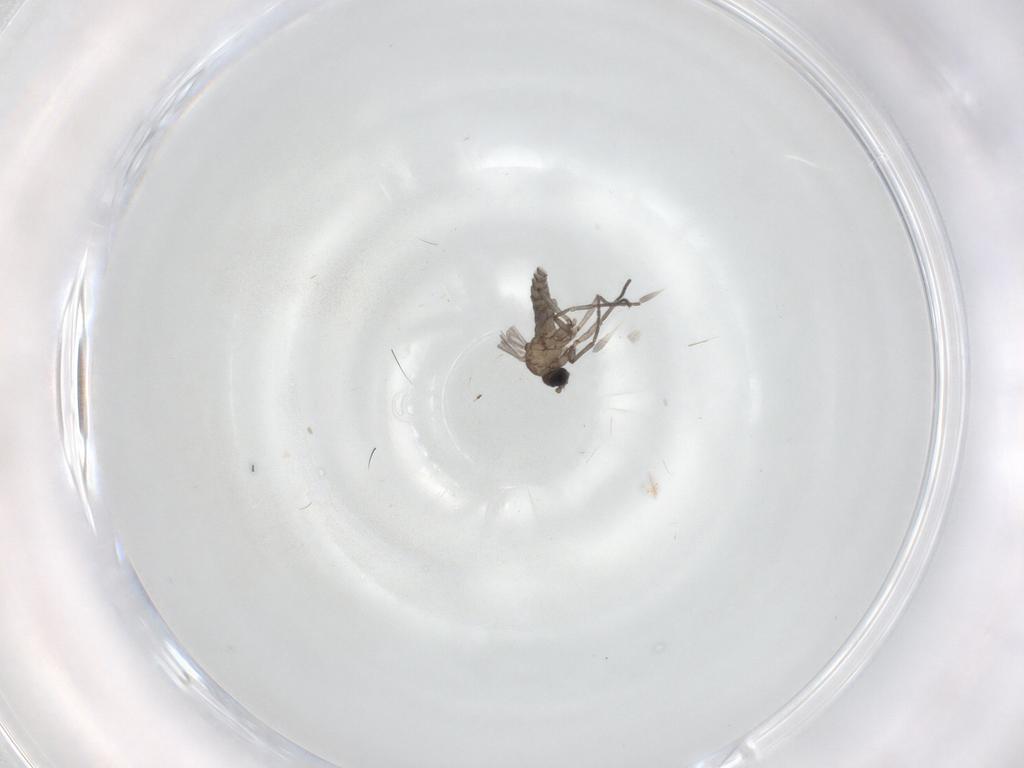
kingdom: Animalia
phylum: Arthropoda
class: Insecta
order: Diptera
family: Sciaridae
